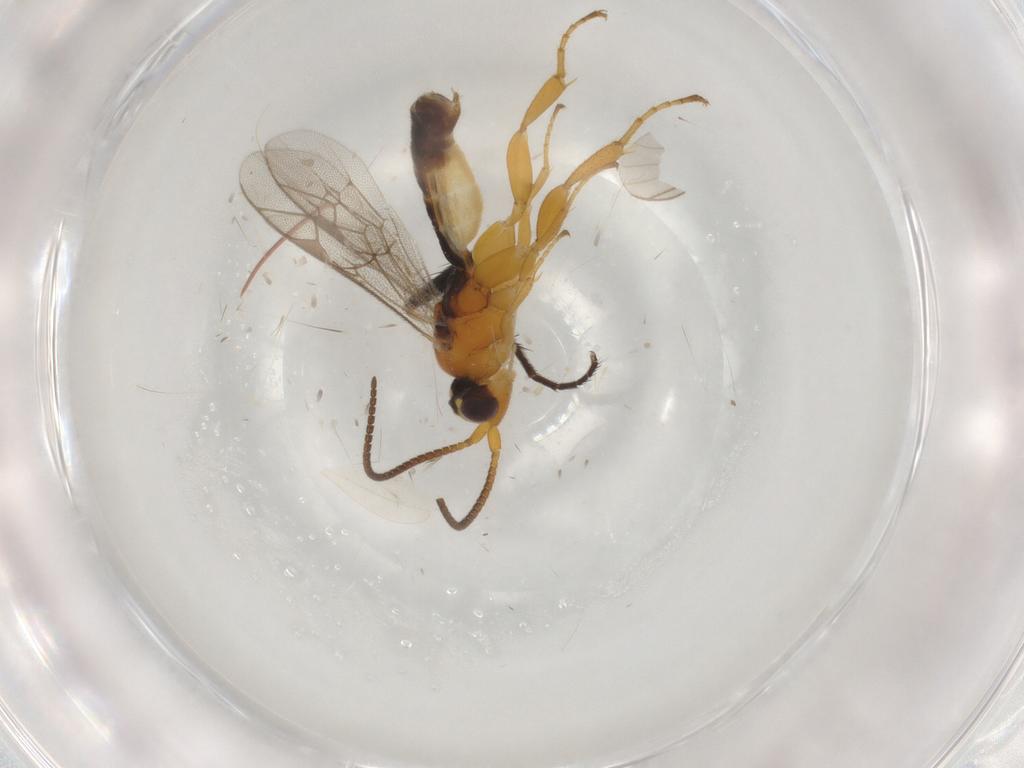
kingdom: Animalia
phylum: Arthropoda
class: Insecta
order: Hymenoptera
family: Ichneumonidae
